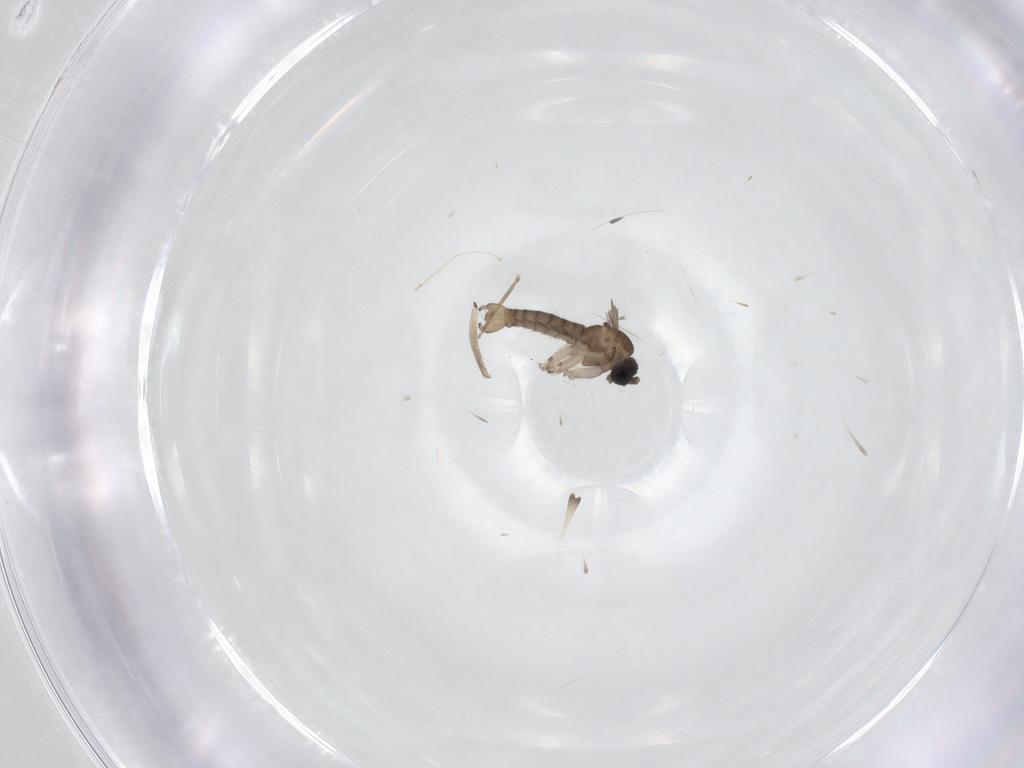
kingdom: Animalia
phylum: Arthropoda
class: Insecta
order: Diptera
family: Sciaridae
